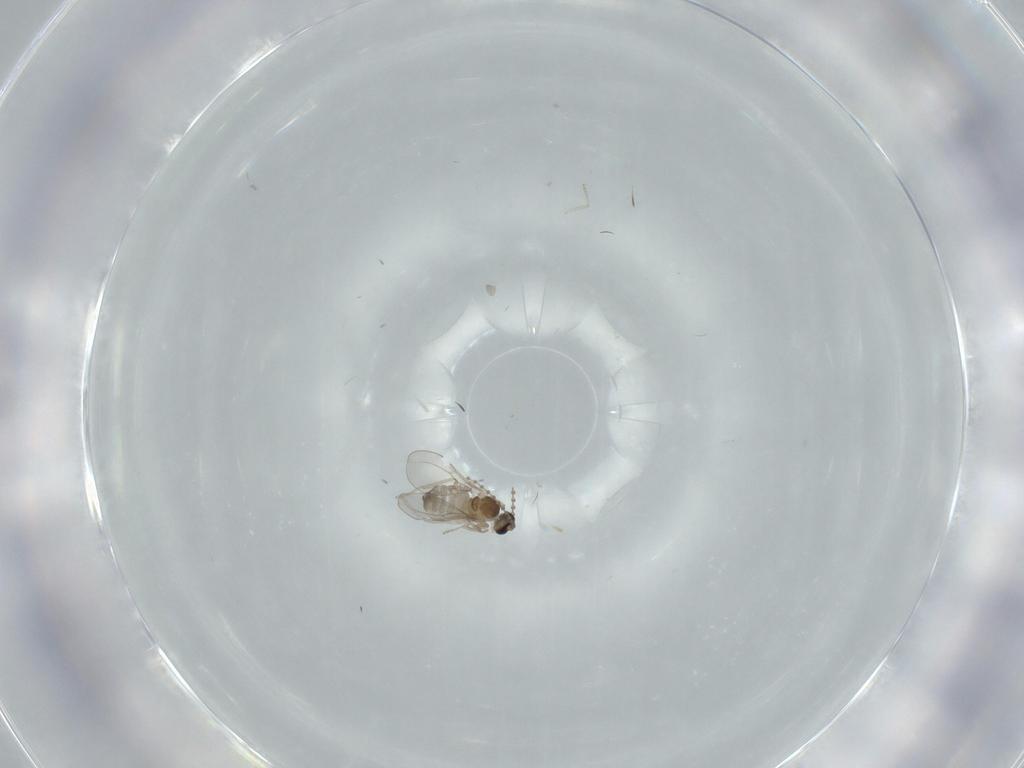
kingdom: Animalia
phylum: Arthropoda
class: Insecta
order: Diptera
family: Cecidomyiidae
